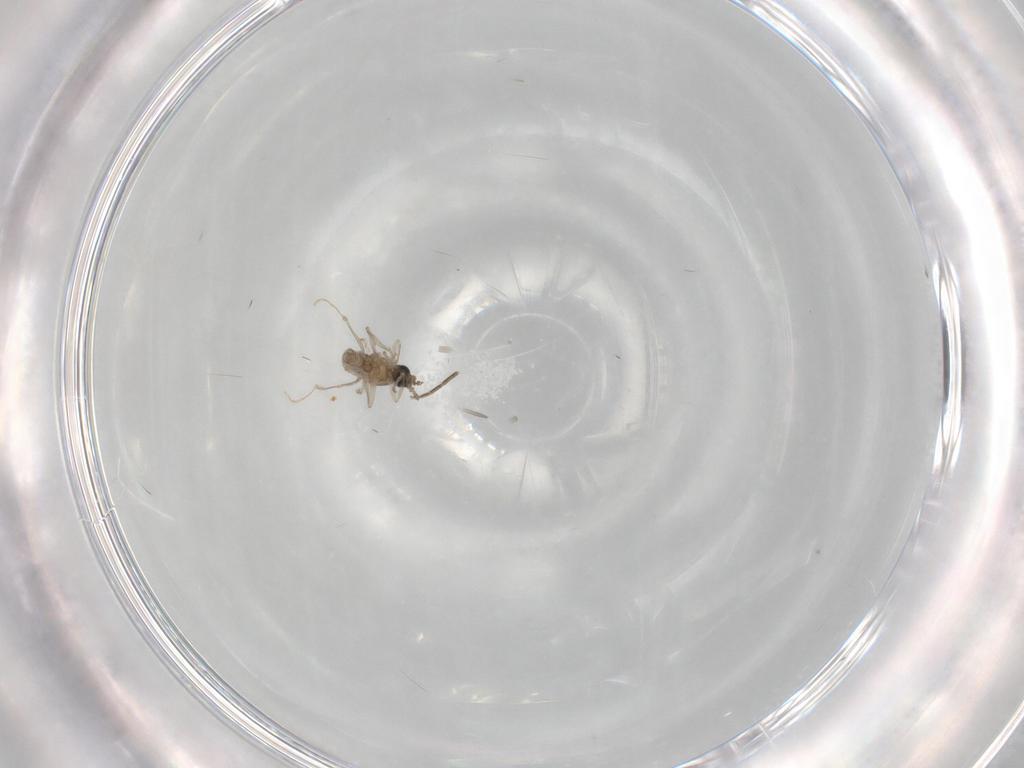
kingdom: Animalia
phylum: Arthropoda
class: Insecta
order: Diptera
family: Cecidomyiidae
